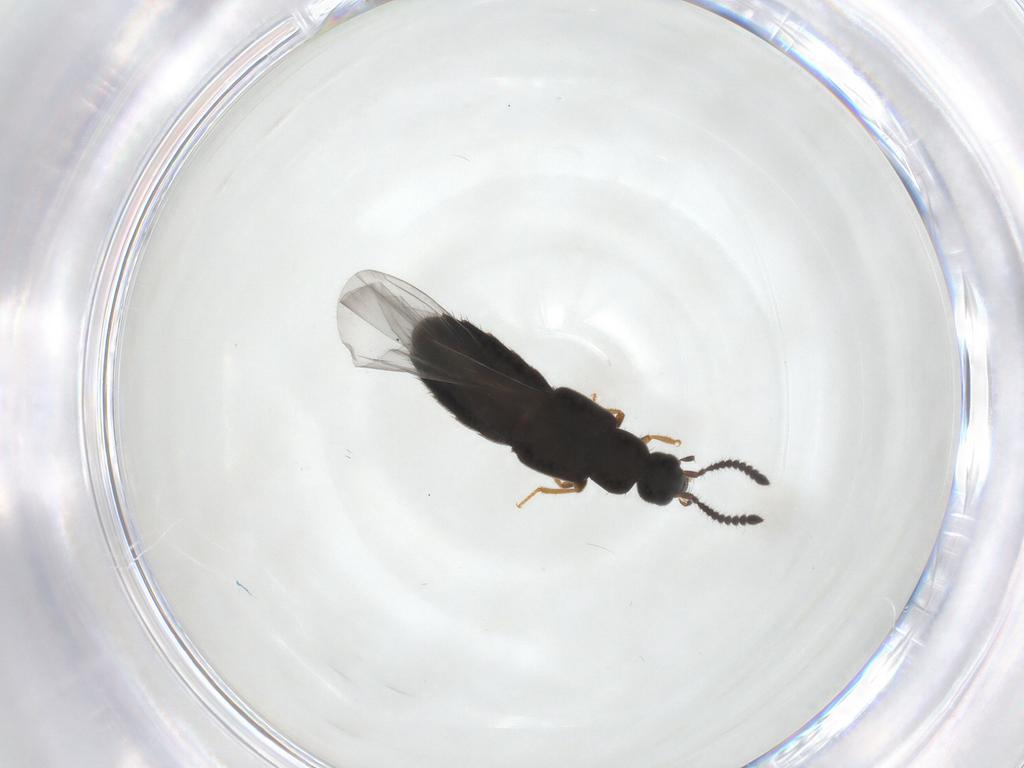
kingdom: Animalia
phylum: Arthropoda
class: Insecta
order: Coleoptera
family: Staphylinidae
